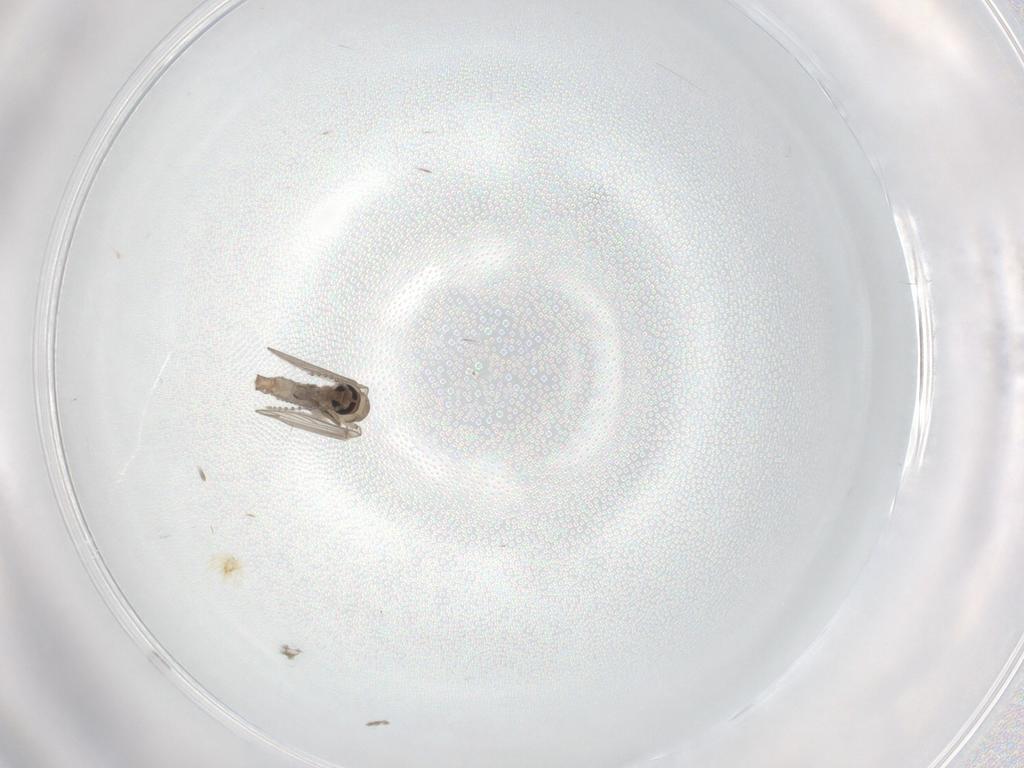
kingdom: Animalia
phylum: Arthropoda
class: Insecta
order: Diptera
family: Psychodidae
